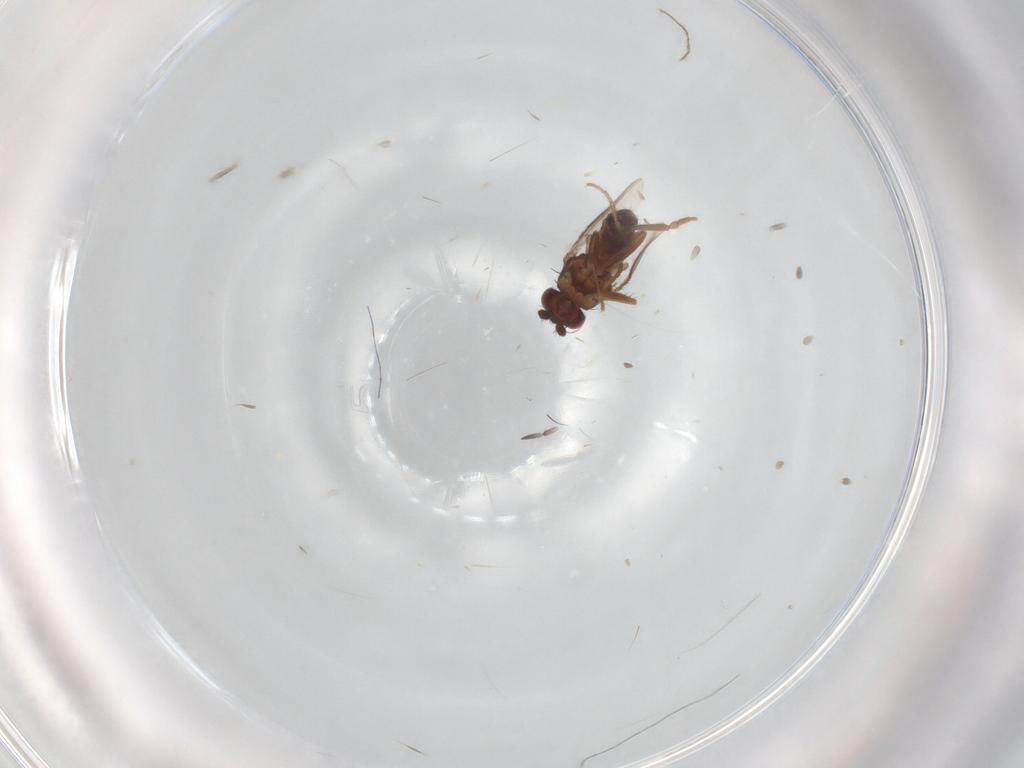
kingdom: Animalia
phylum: Arthropoda
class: Insecta
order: Diptera
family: Sphaeroceridae
